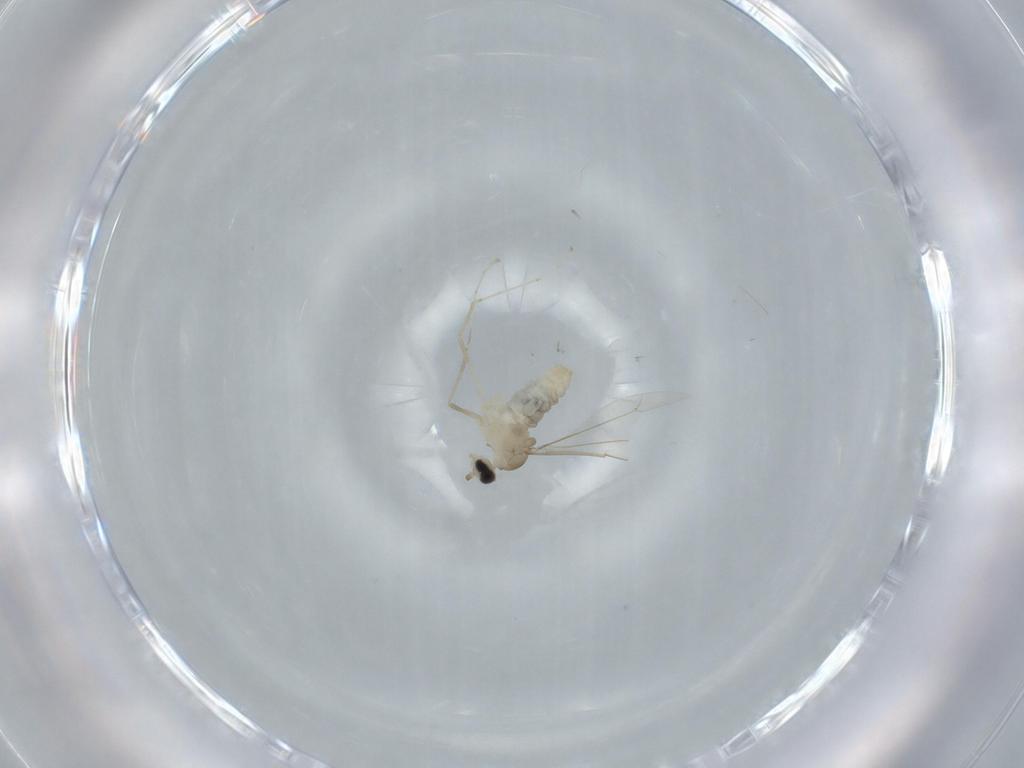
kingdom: Animalia
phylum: Arthropoda
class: Insecta
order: Diptera
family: Cecidomyiidae
